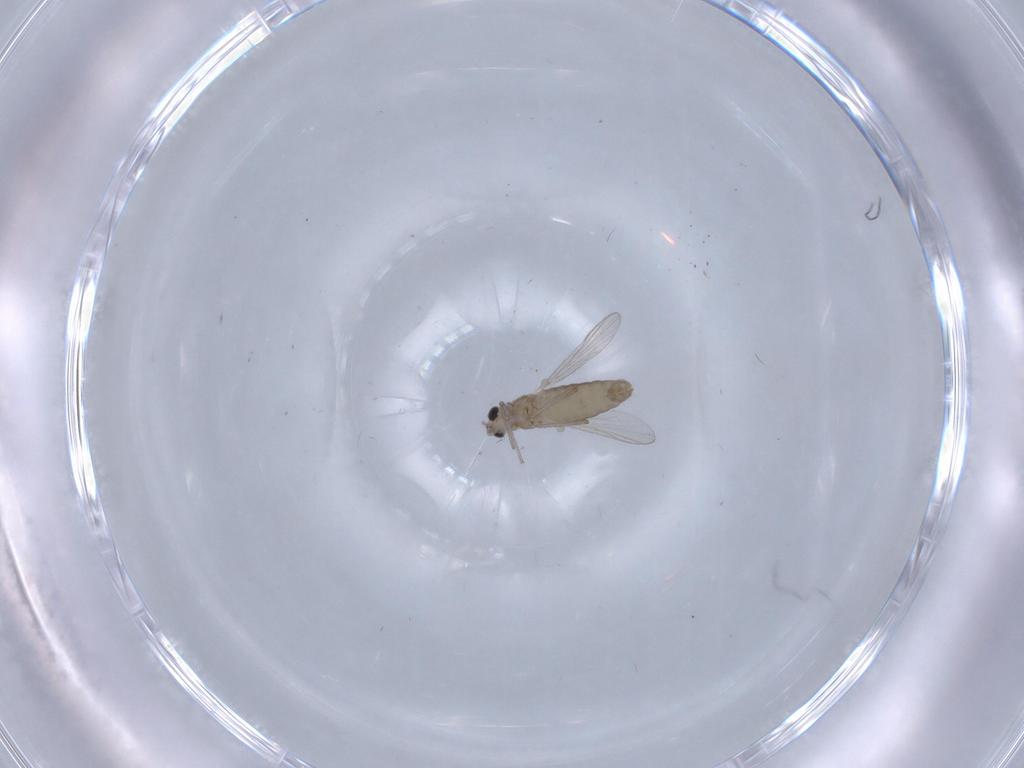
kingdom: Animalia
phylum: Arthropoda
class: Insecta
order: Diptera
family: Chironomidae
